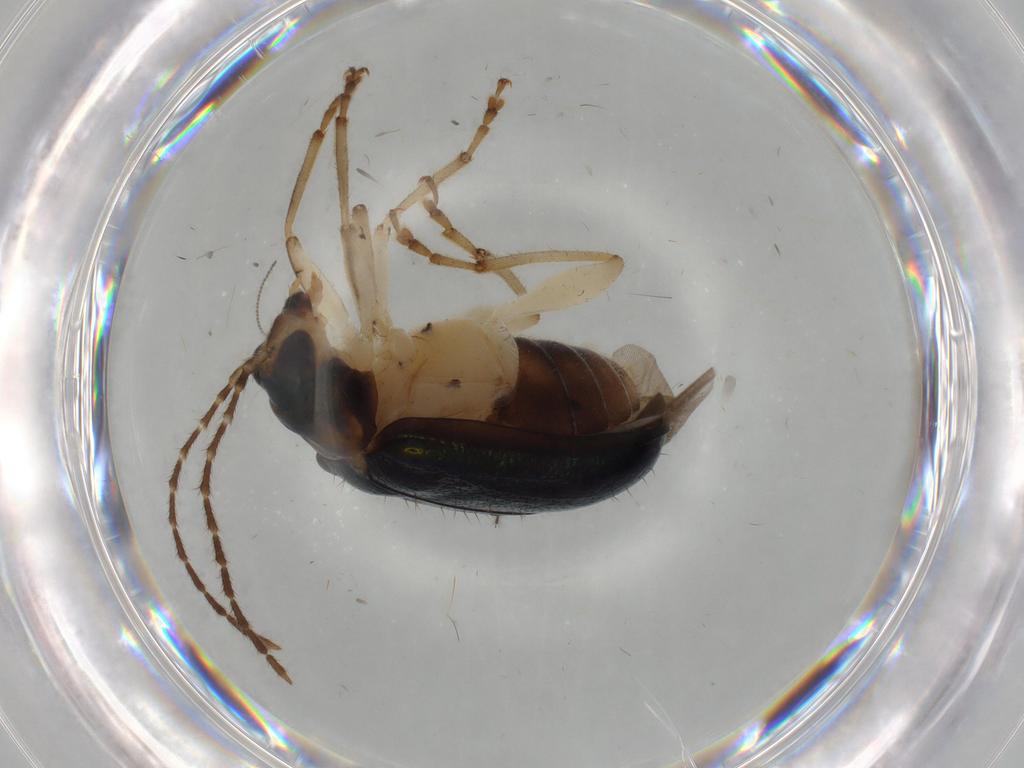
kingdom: Animalia
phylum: Arthropoda
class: Insecta
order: Coleoptera
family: Chrysomelidae
